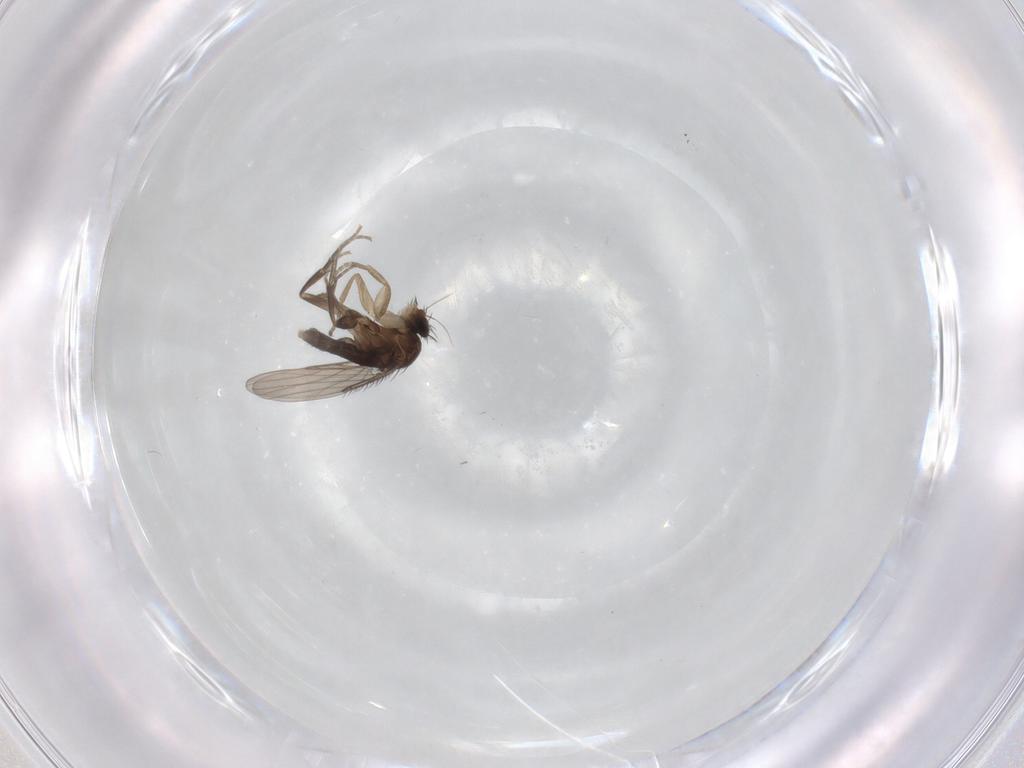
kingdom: Animalia
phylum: Arthropoda
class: Insecta
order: Diptera
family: Phoridae
